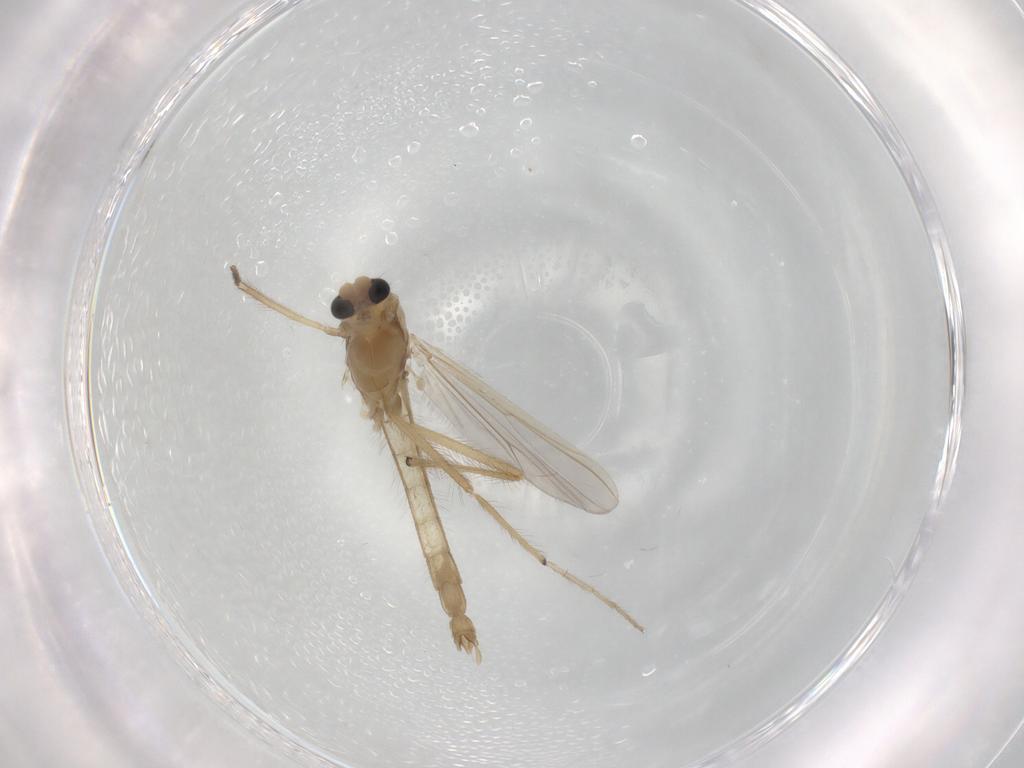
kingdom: Animalia
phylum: Arthropoda
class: Insecta
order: Diptera
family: Chironomidae
